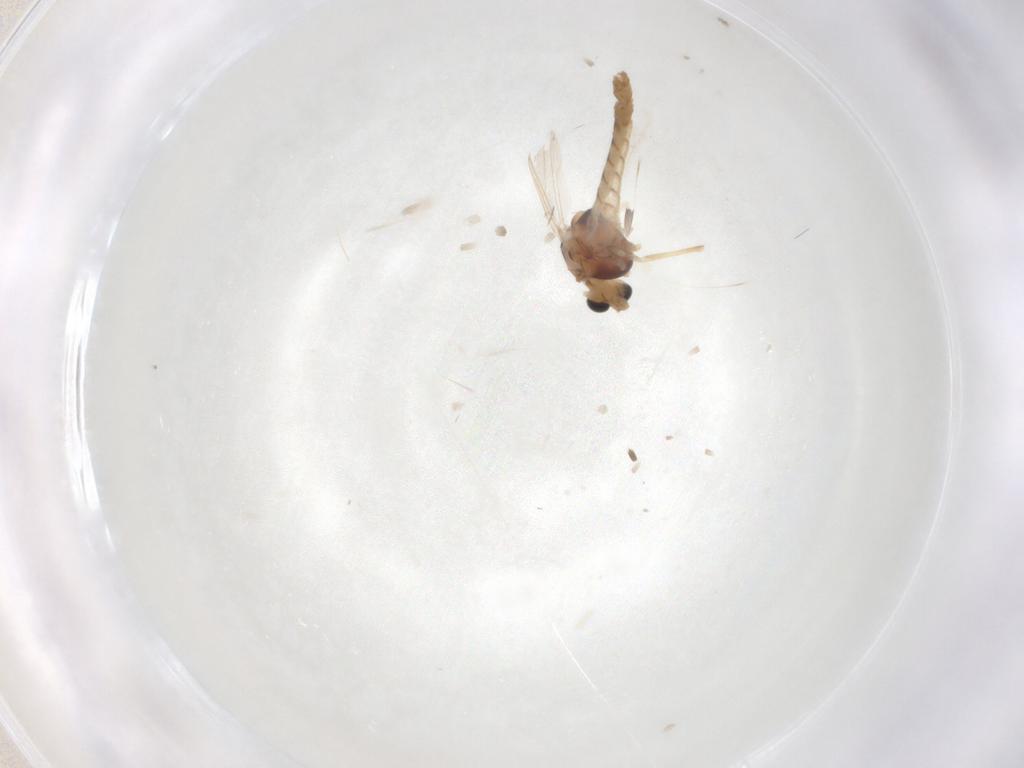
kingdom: Animalia
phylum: Arthropoda
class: Insecta
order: Diptera
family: Chironomidae
